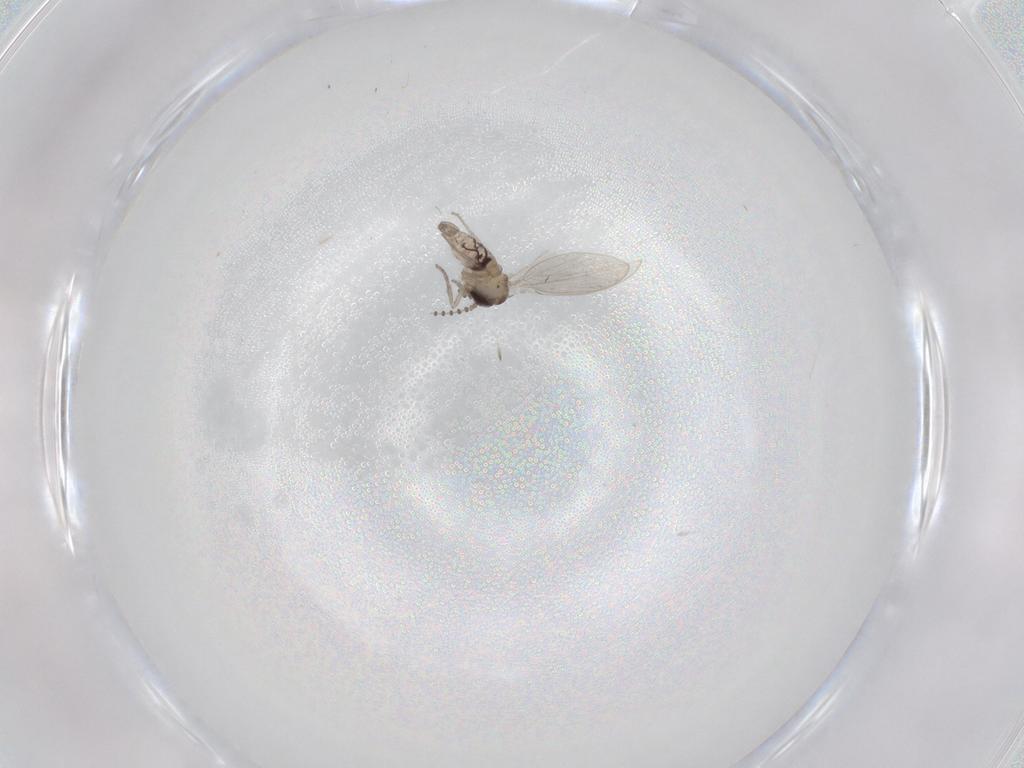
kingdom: Animalia
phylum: Arthropoda
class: Insecta
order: Diptera
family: Psychodidae
